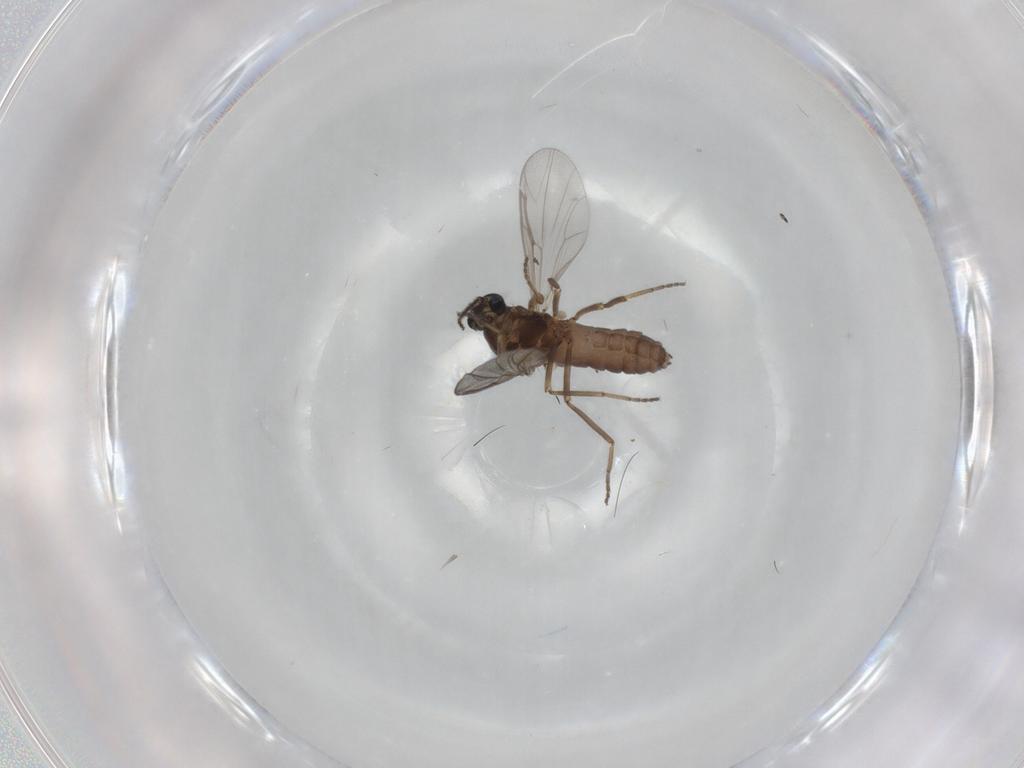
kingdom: Animalia
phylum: Arthropoda
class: Insecta
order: Diptera
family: Ceratopogonidae
